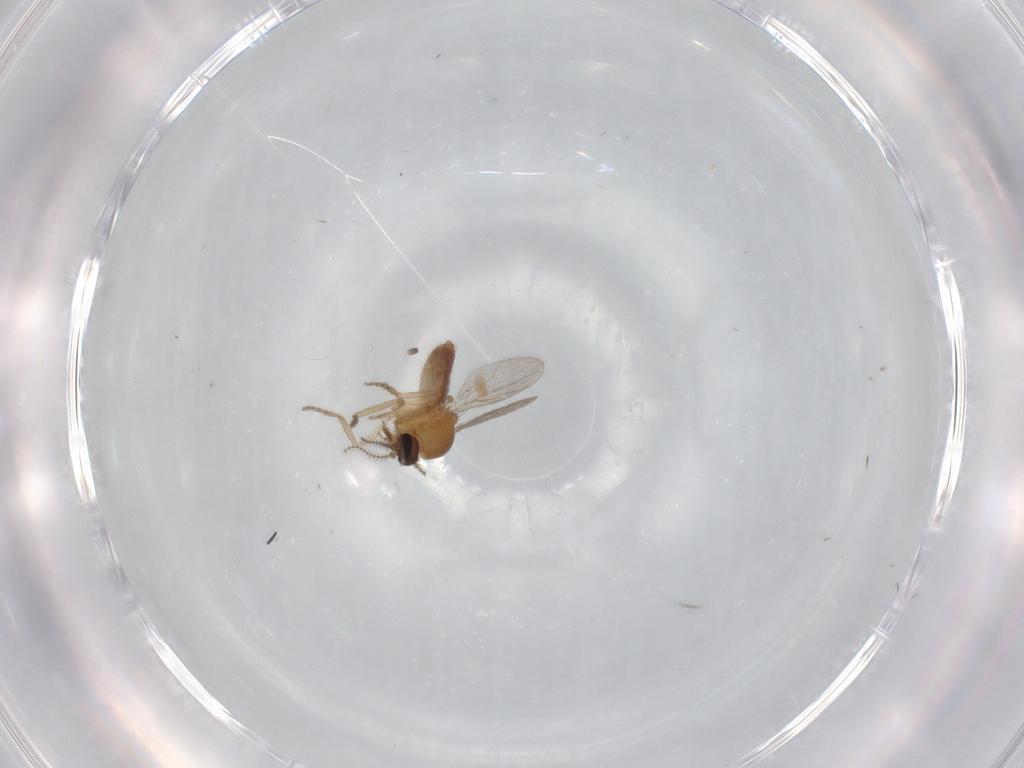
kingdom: Animalia
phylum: Arthropoda
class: Insecta
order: Diptera
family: Ceratopogonidae
